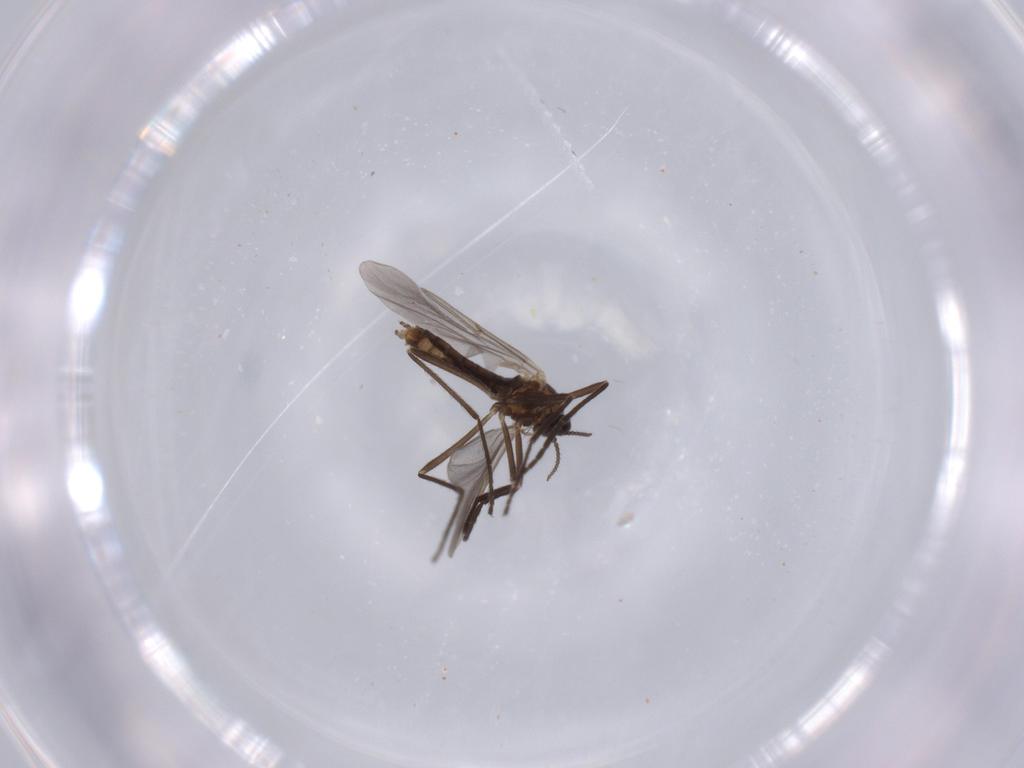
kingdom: Animalia
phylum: Arthropoda
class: Insecta
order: Diptera
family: Cecidomyiidae
